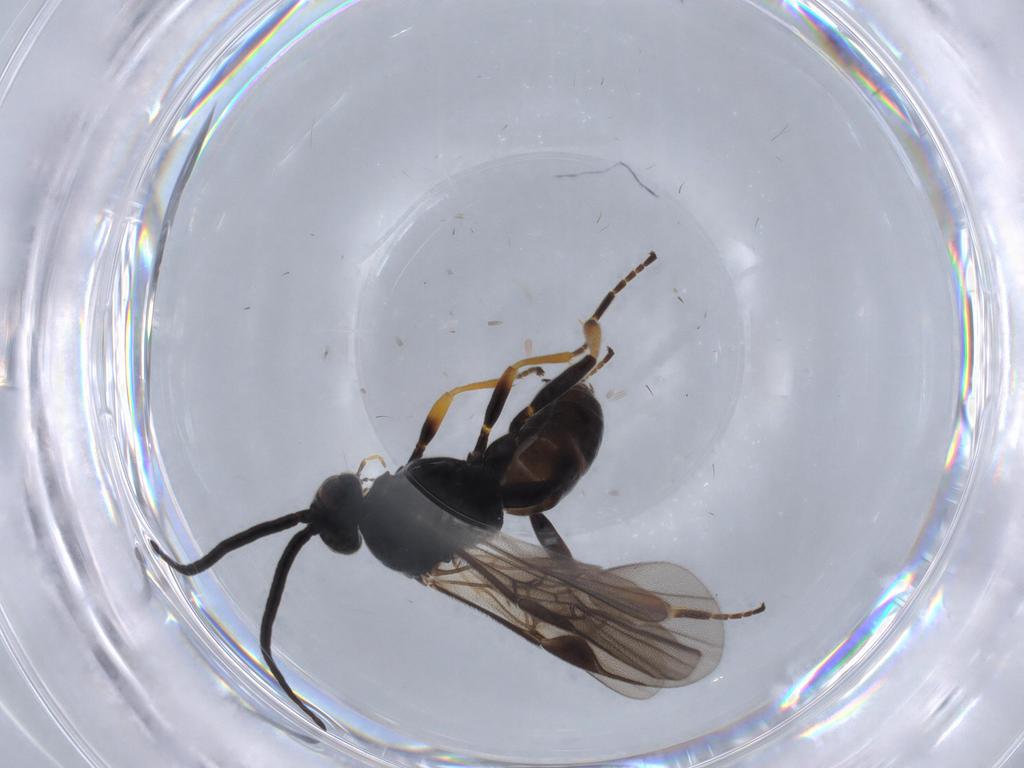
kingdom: Animalia
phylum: Arthropoda
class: Insecta
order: Hymenoptera
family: Braconidae
